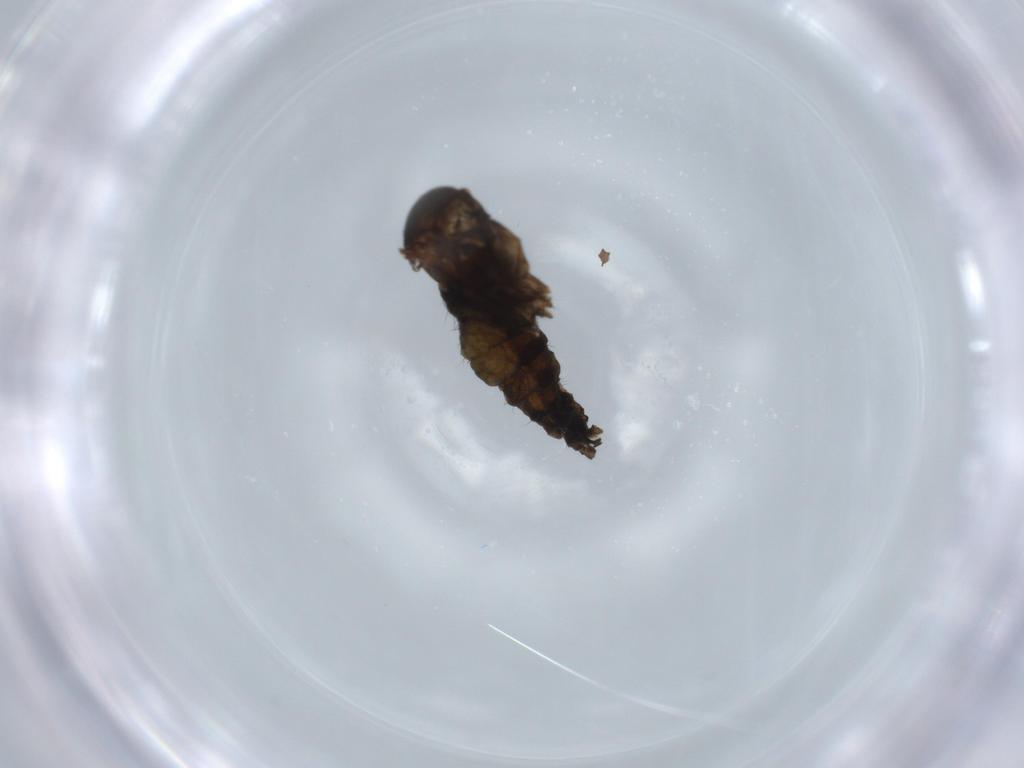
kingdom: Animalia
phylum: Arthropoda
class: Insecta
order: Diptera
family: Sciaridae
